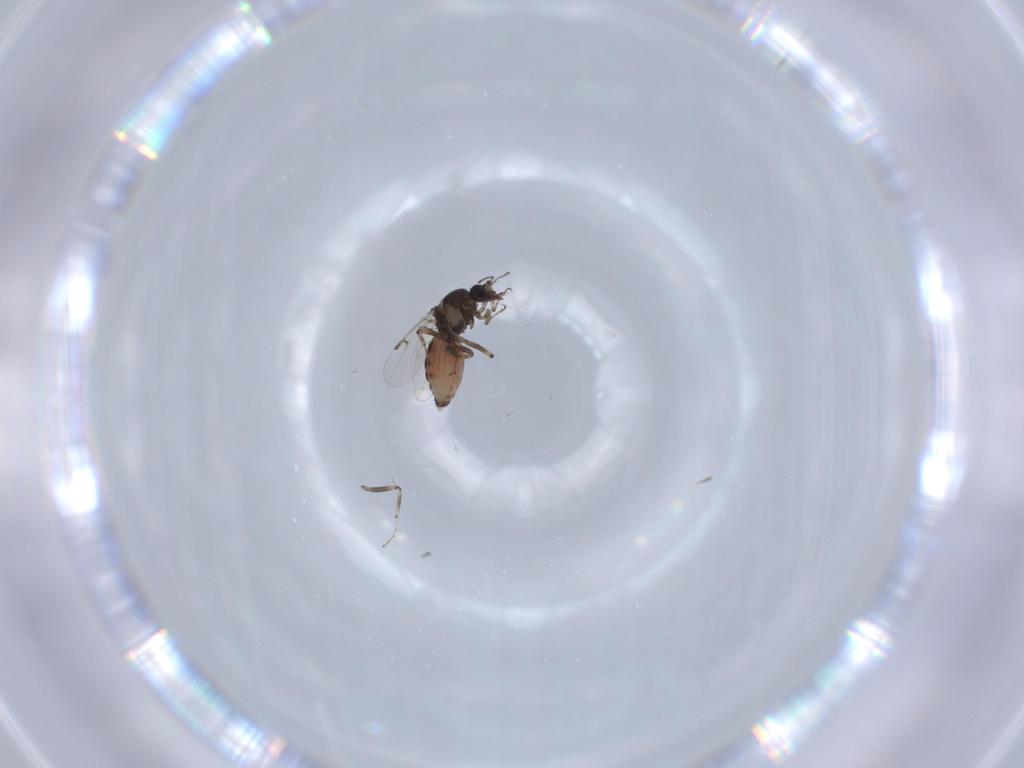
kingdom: Animalia
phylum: Arthropoda
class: Insecta
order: Diptera
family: Ceratopogonidae
